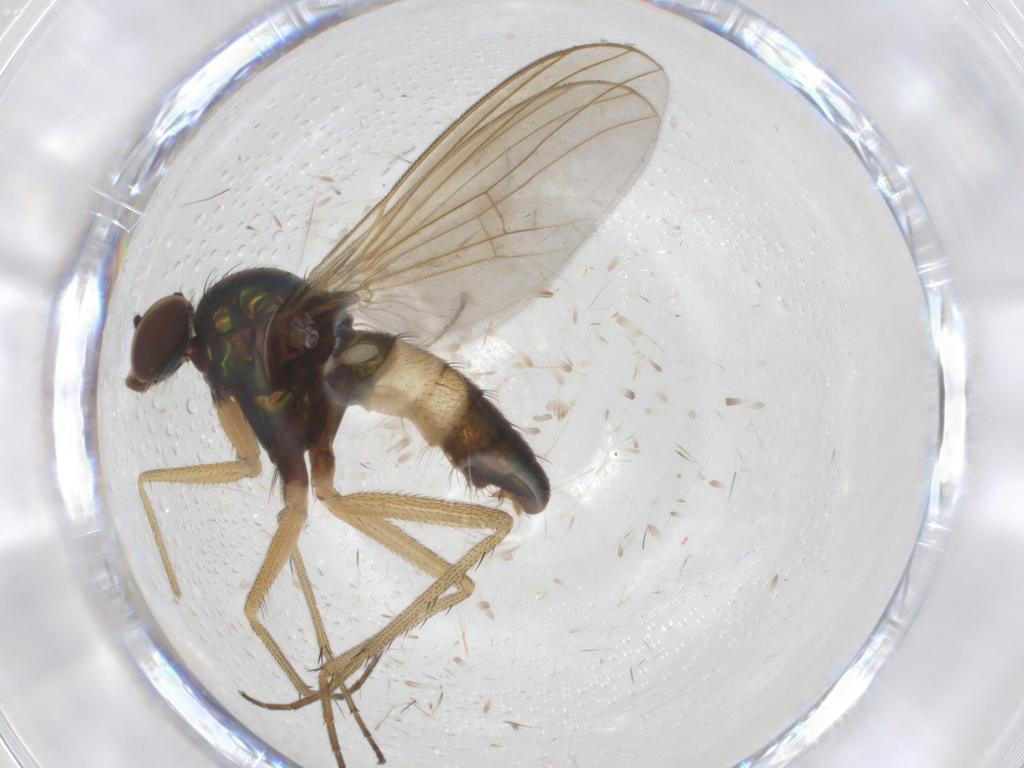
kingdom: Animalia
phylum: Arthropoda
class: Insecta
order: Diptera
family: Dolichopodidae
